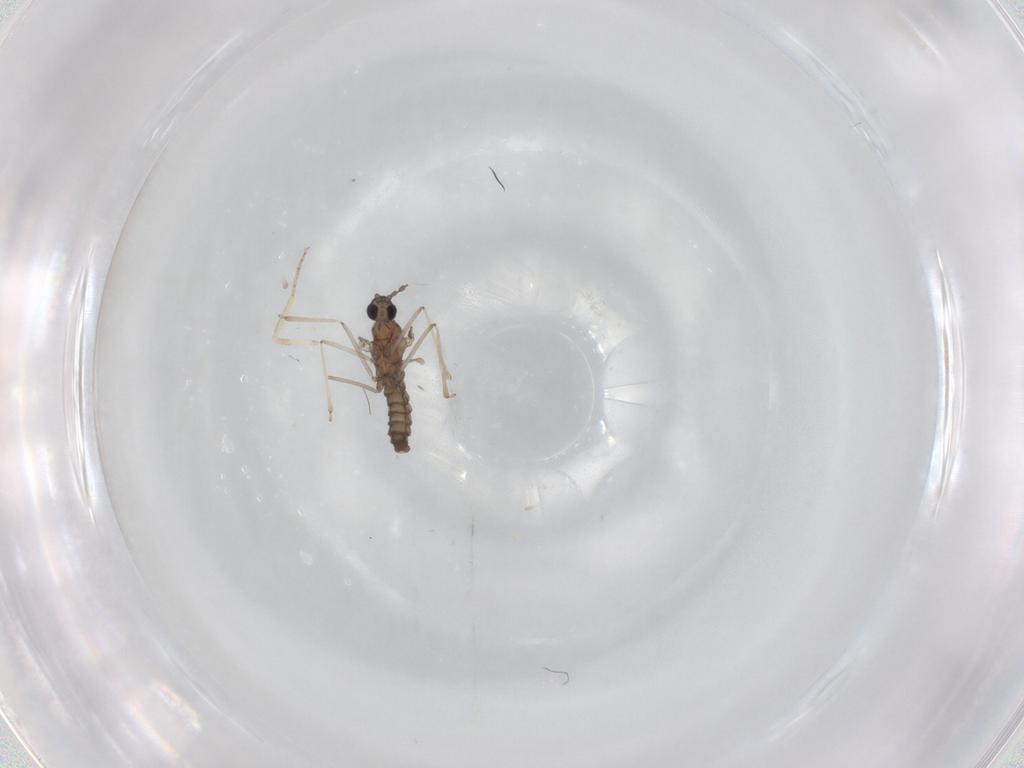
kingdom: Animalia
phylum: Arthropoda
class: Insecta
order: Diptera
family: Cecidomyiidae
